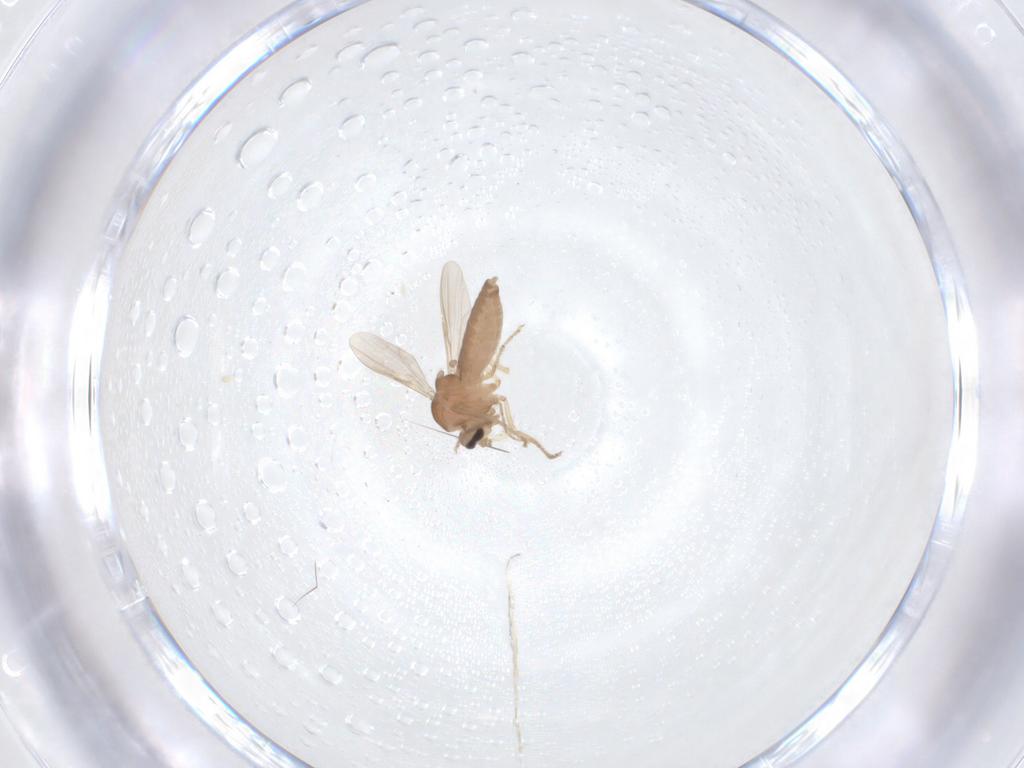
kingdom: Animalia
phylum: Arthropoda
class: Insecta
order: Diptera
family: Ceratopogonidae
